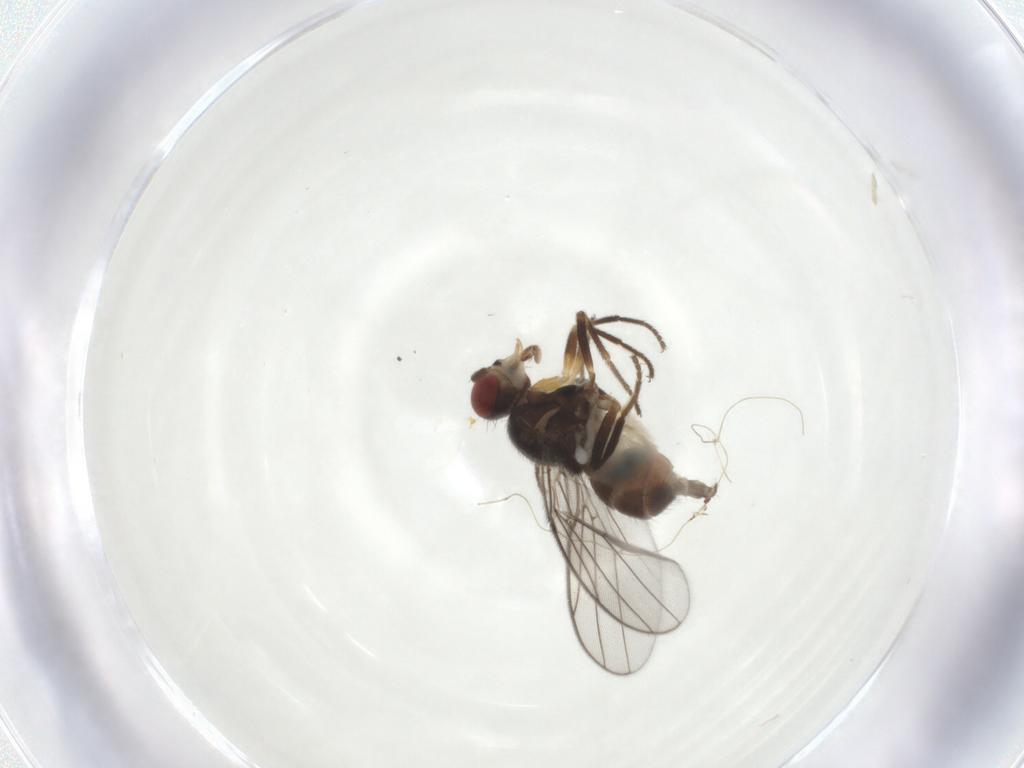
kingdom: Animalia
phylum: Arthropoda
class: Insecta
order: Diptera
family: Chloropidae
